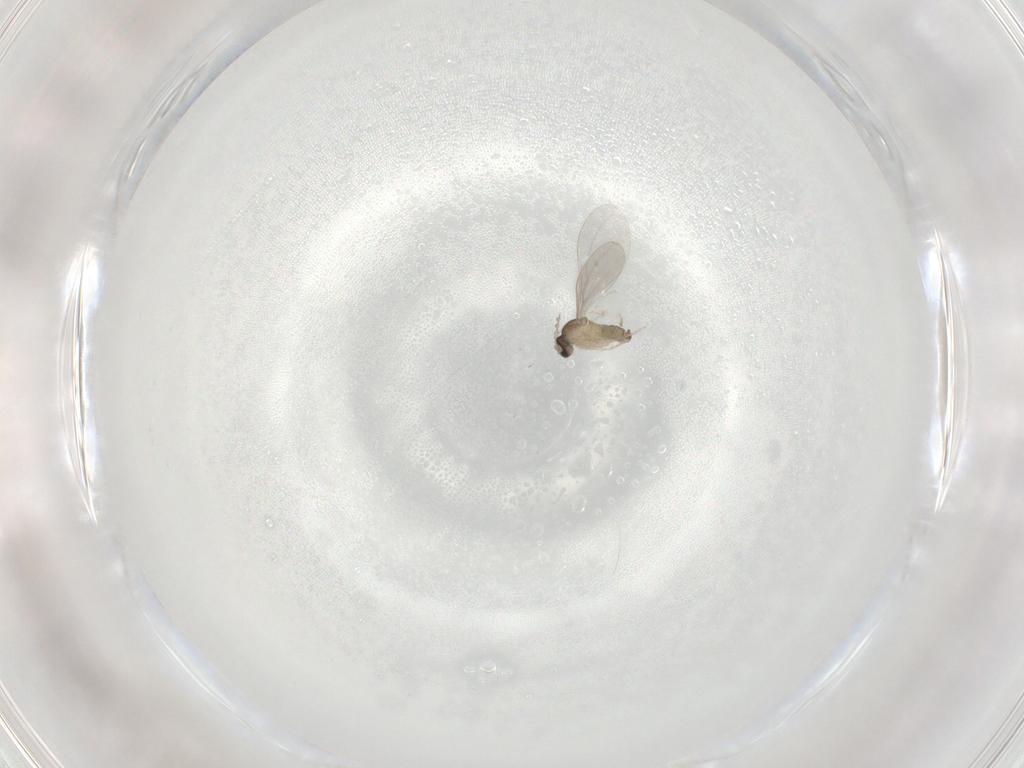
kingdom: Animalia
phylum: Arthropoda
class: Insecta
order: Diptera
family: Cecidomyiidae
